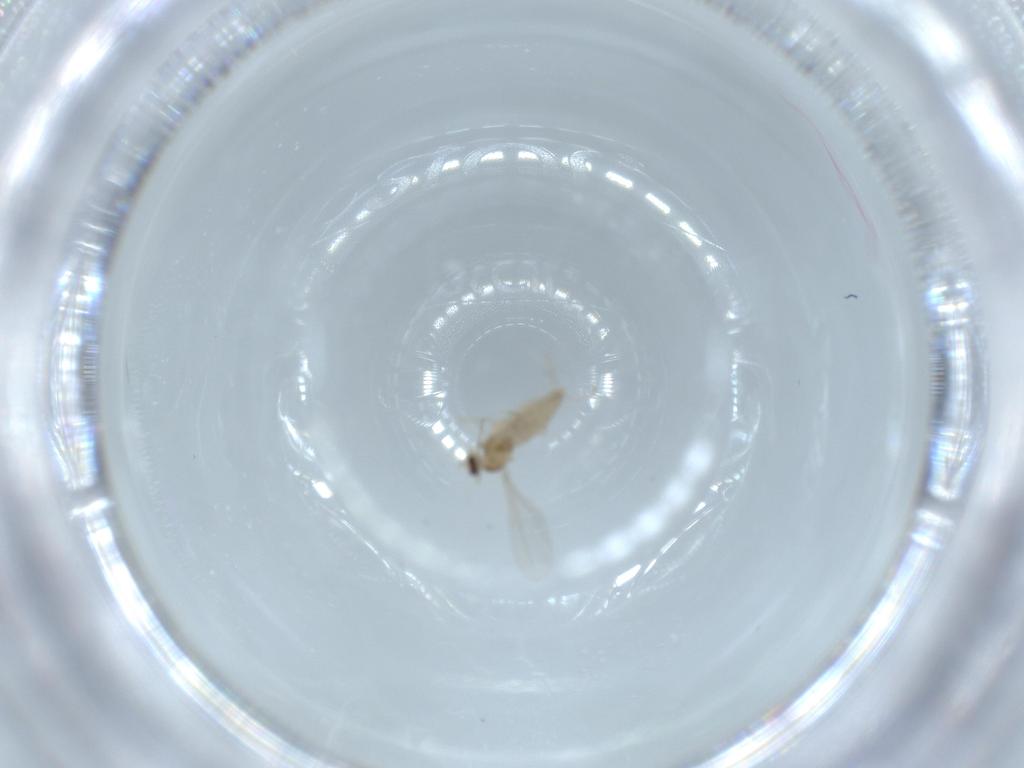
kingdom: Animalia
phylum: Arthropoda
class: Insecta
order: Diptera
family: Cecidomyiidae
